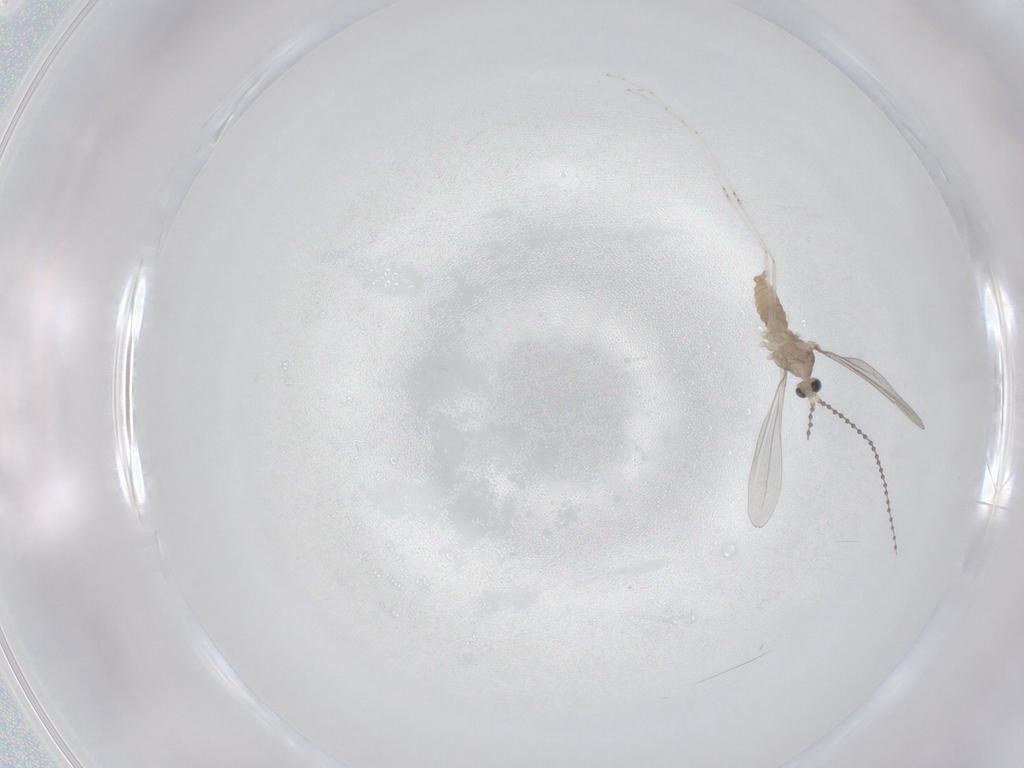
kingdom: Animalia
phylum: Arthropoda
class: Insecta
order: Diptera
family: Cecidomyiidae
